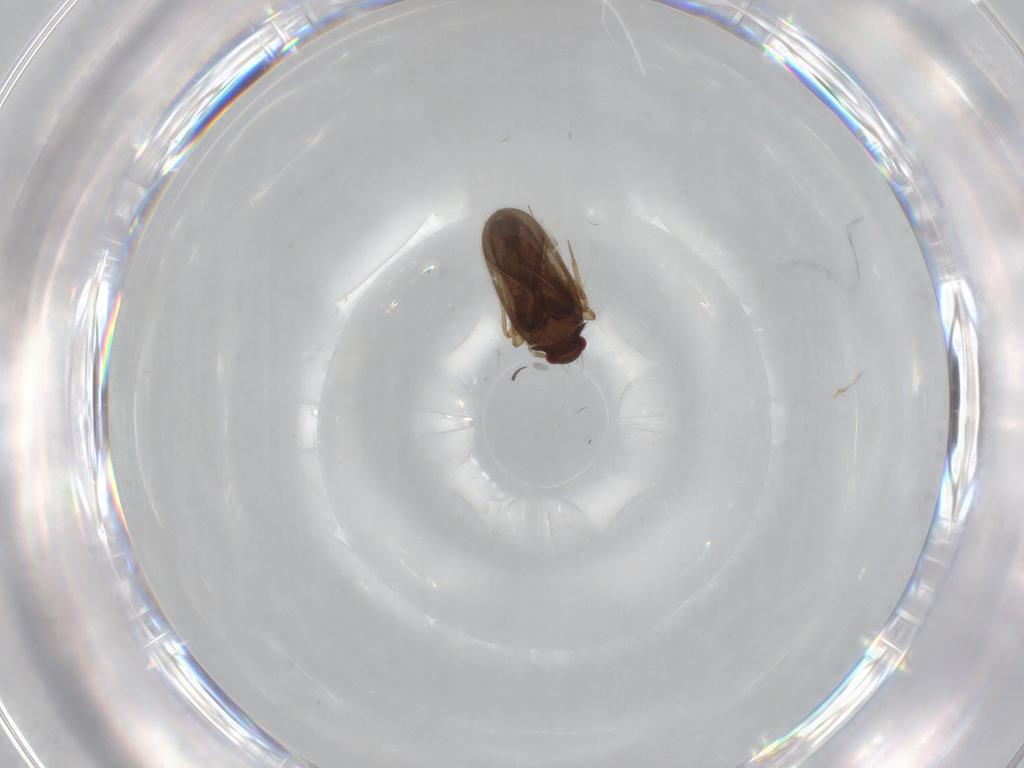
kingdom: Animalia
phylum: Arthropoda
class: Insecta
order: Hemiptera
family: Ceratocombidae
